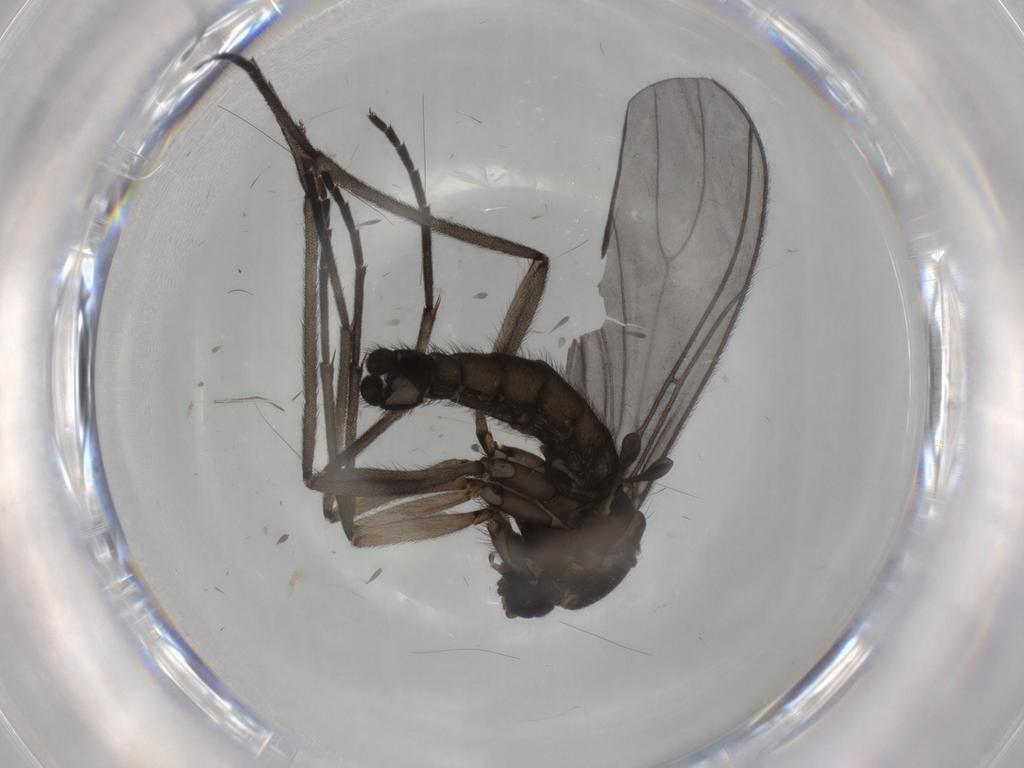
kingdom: Animalia
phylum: Arthropoda
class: Insecta
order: Diptera
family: Sciaridae
